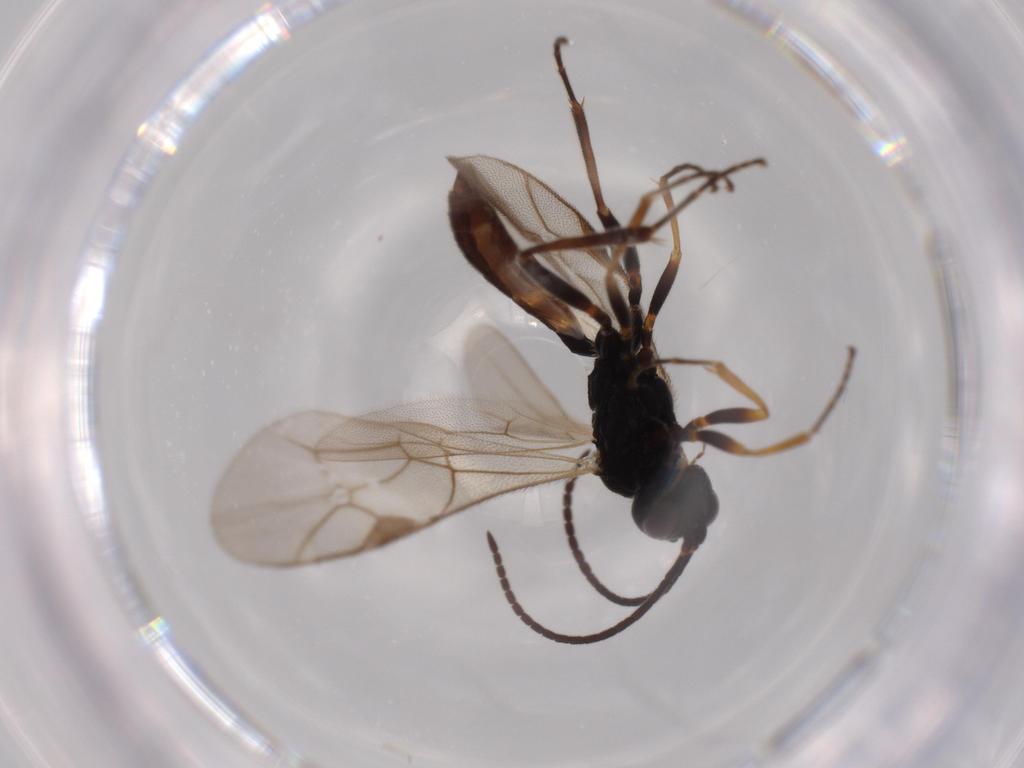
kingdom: Animalia
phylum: Arthropoda
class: Insecta
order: Hymenoptera
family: Ichneumonidae
